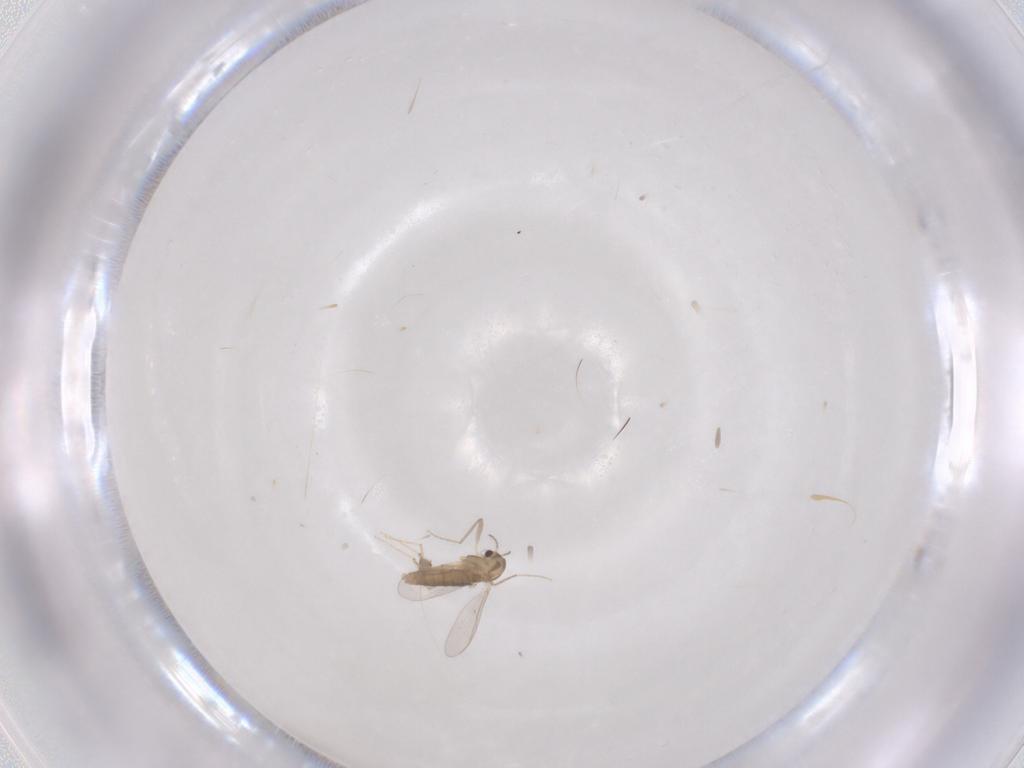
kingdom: Animalia
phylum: Arthropoda
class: Insecta
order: Diptera
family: Chironomidae
